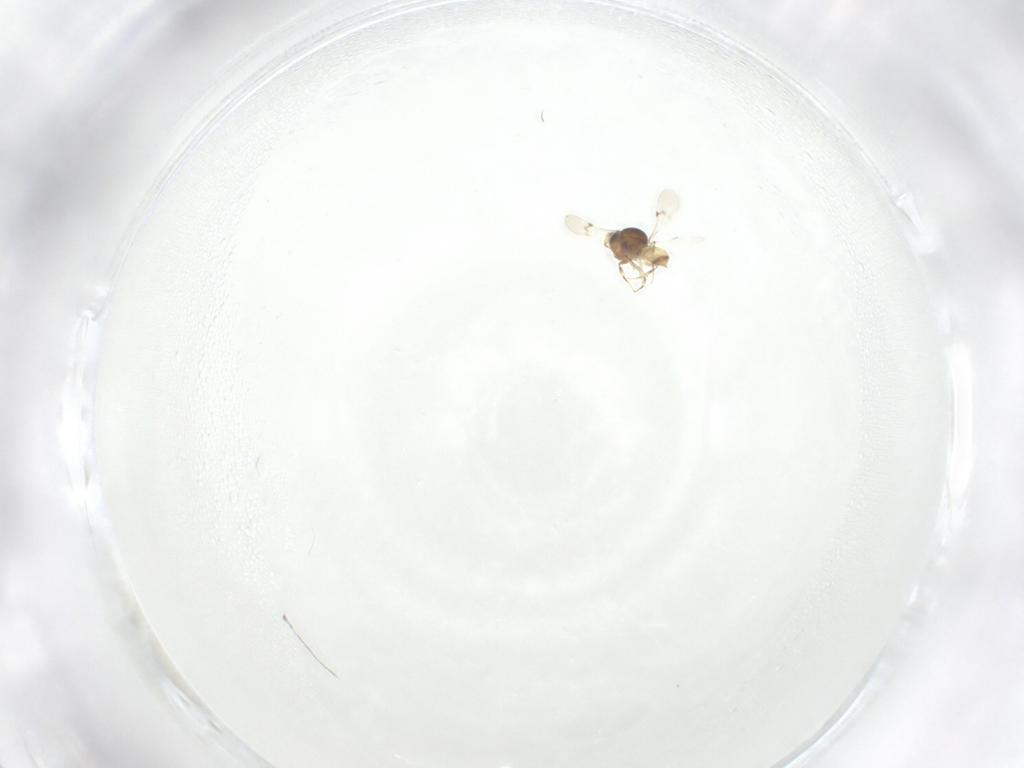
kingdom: Animalia
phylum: Arthropoda
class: Insecta
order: Hymenoptera
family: Scelionidae
